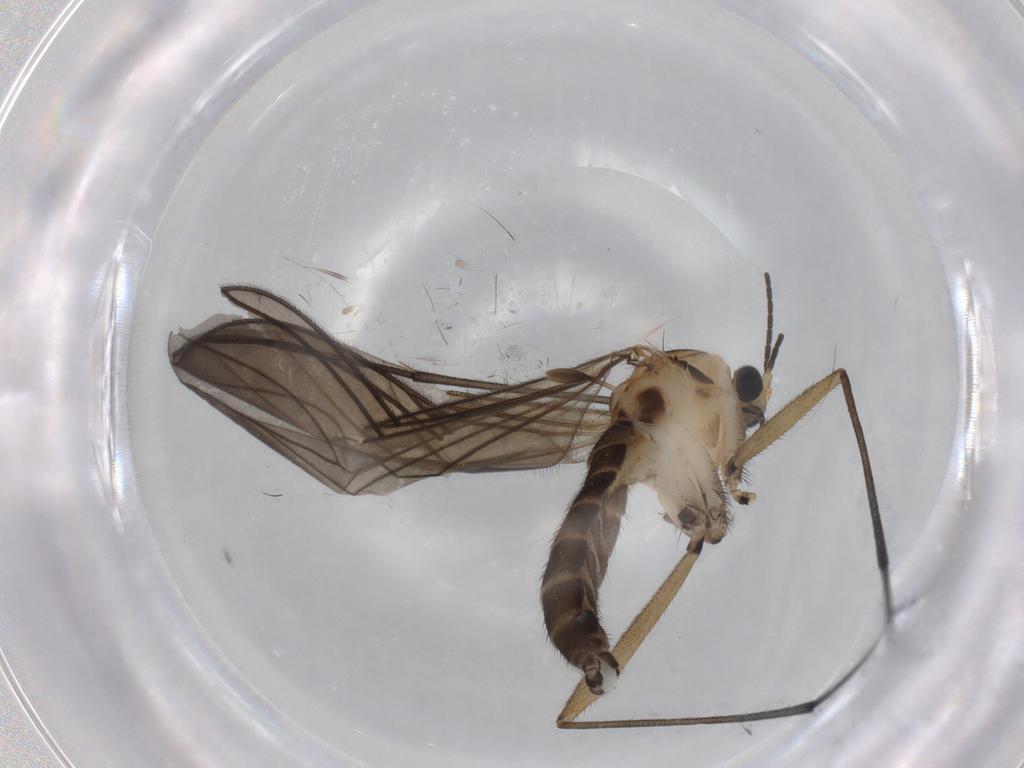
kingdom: Animalia
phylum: Arthropoda
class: Insecta
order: Diptera
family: Sciaridae
